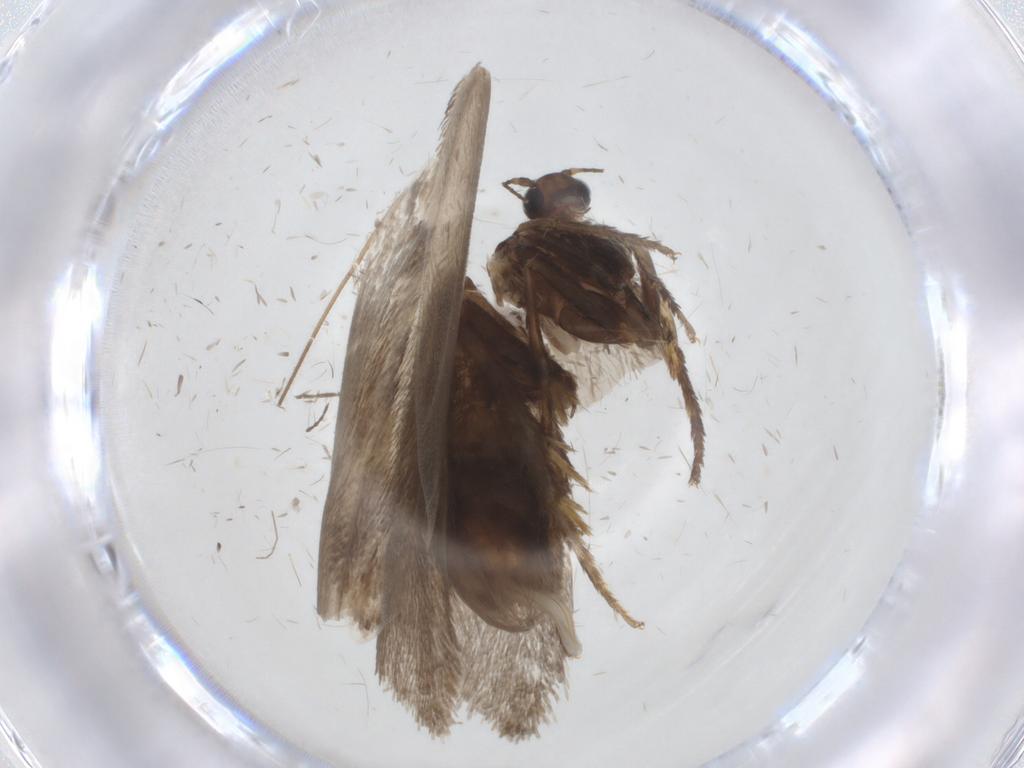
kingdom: Animalia
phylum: Arthropoda
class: Insecta
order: Lepidoptera
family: Psychidae
